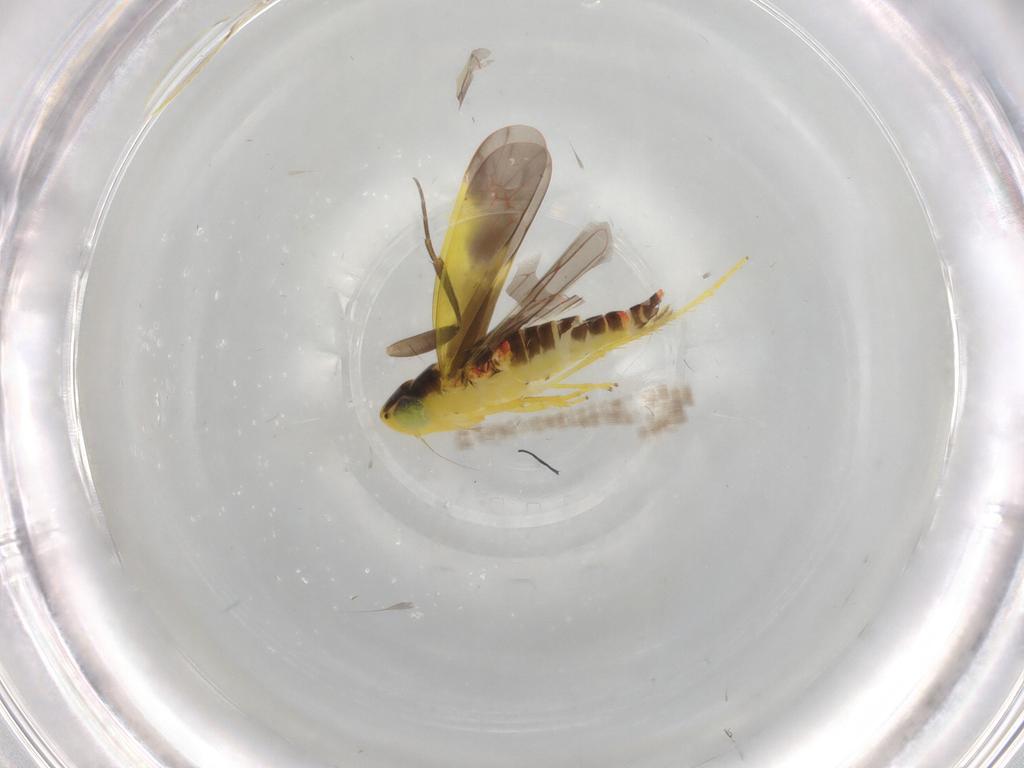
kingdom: Animalia
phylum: Arthropoda
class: Insecta
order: Hemiptera
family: Cicadellidae
